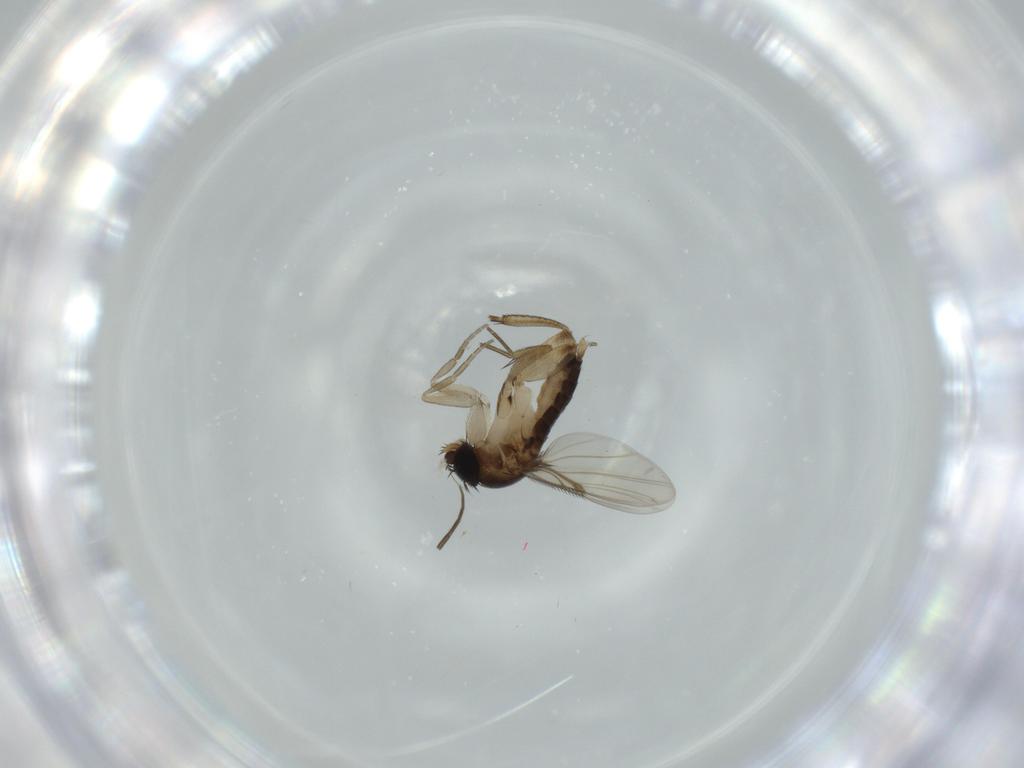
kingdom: Animalia
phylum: Arthropoda
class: Insecta
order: Diptera
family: Phoridae
